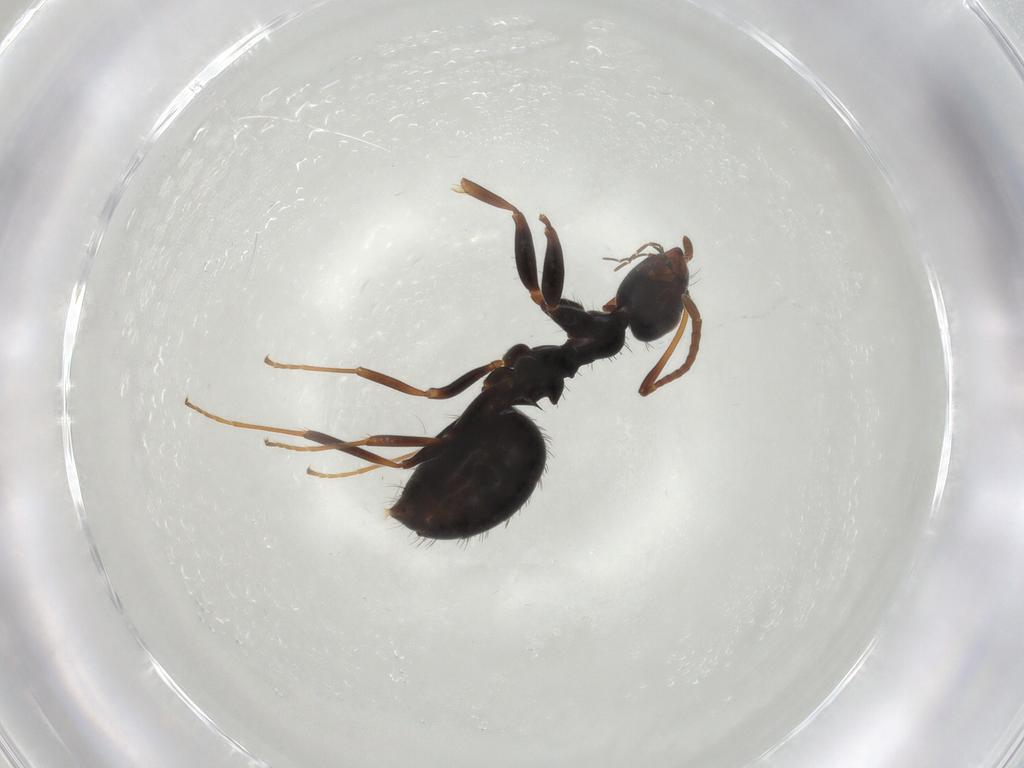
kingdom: Animalia
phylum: Arthropoda
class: Insecta
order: Hymenoptera
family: Formicidae
